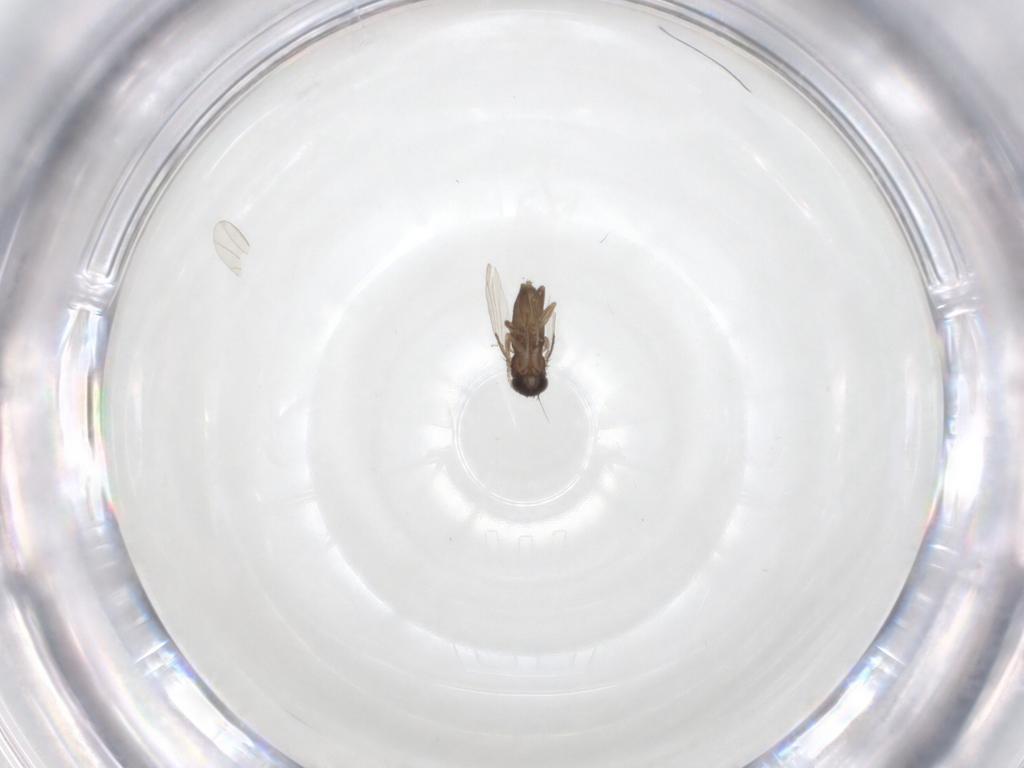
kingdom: Animalia
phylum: Arthropoda
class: Insecta
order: Diptera
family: Phoridae
